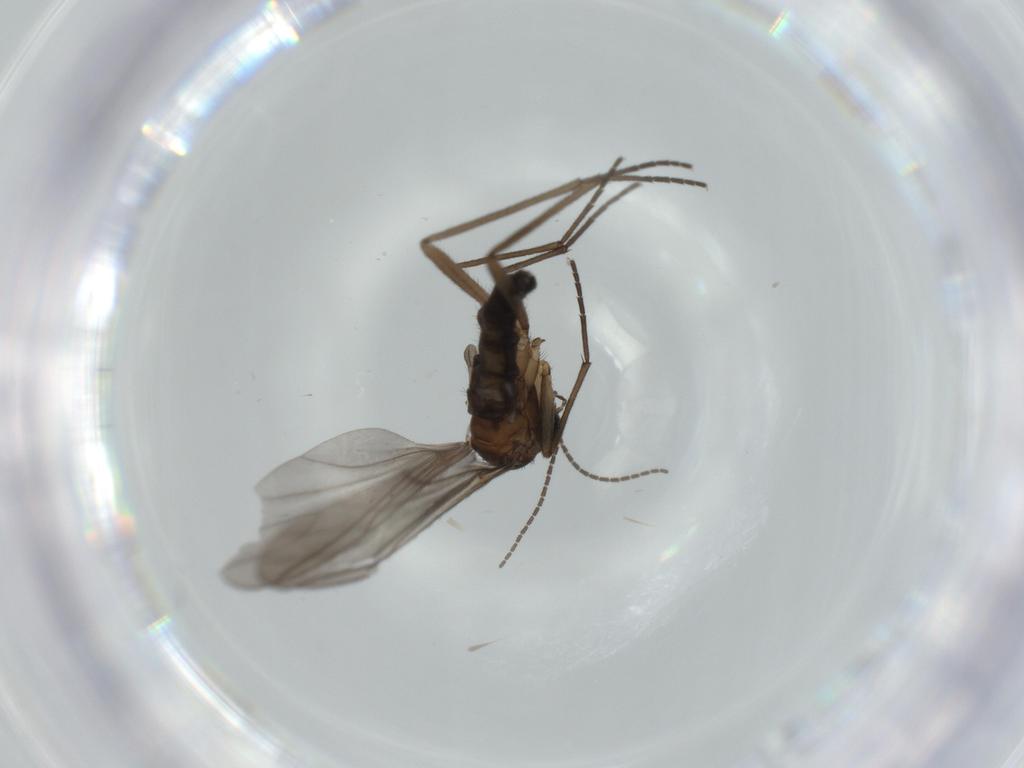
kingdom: Animalia
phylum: Arthropoda
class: Insecta
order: Diptera
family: Sciaridae
